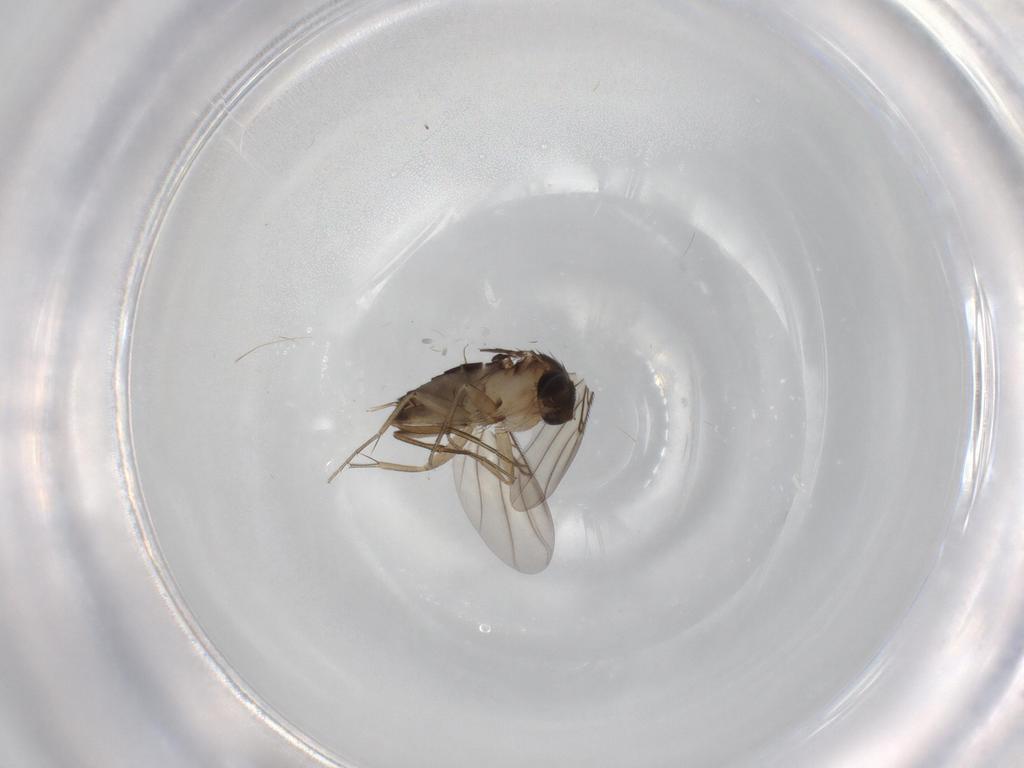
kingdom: Animalia
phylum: Arthropoda
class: Insecta
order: Diptera
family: Phoridae
